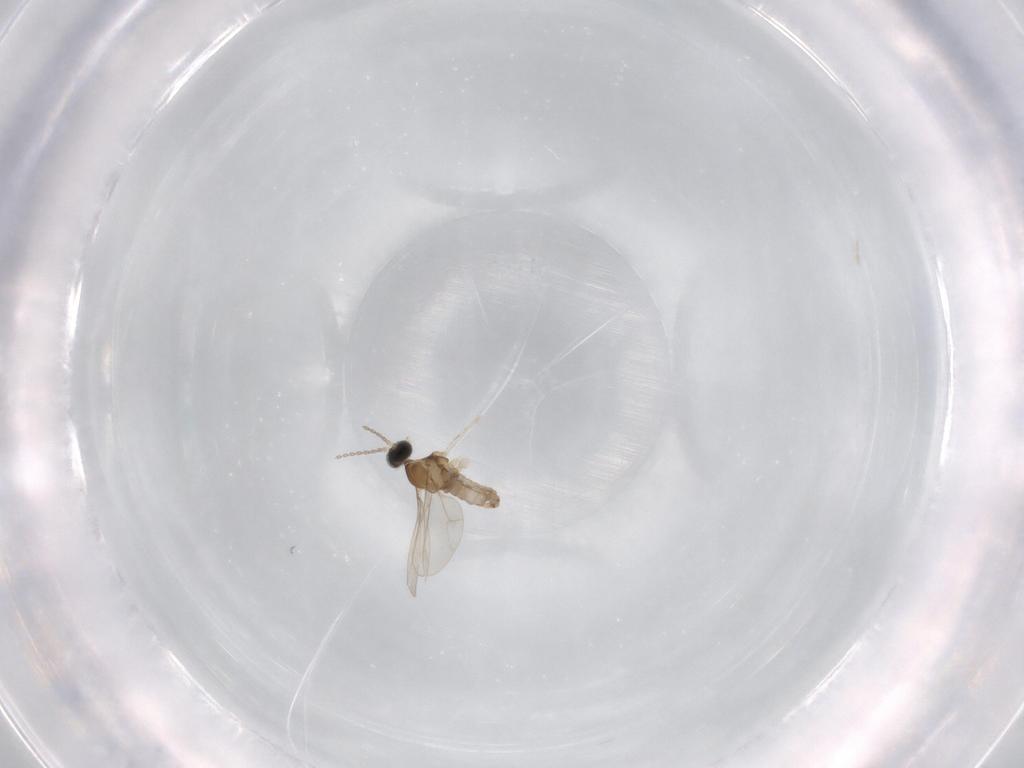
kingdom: Animalia
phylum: Arthropoda
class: Insecta
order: Diptera
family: Cecidomyiidae
